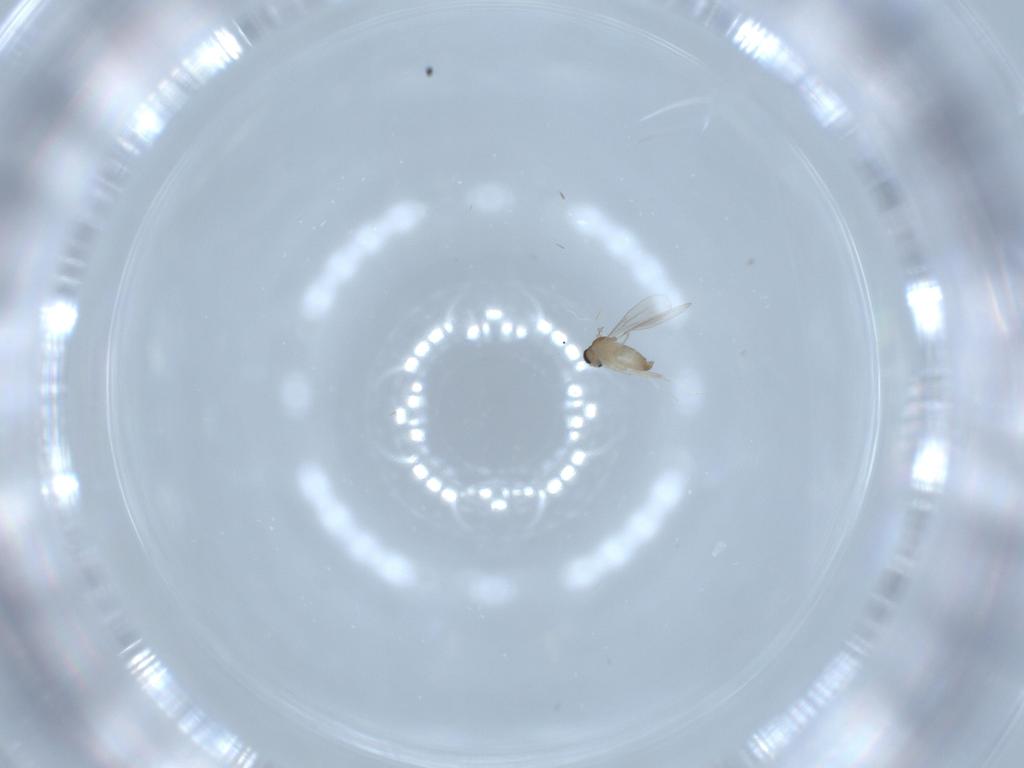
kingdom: Animalia
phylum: Arthropoda
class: Insecta
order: Diptera
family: Cecidomyiidae
